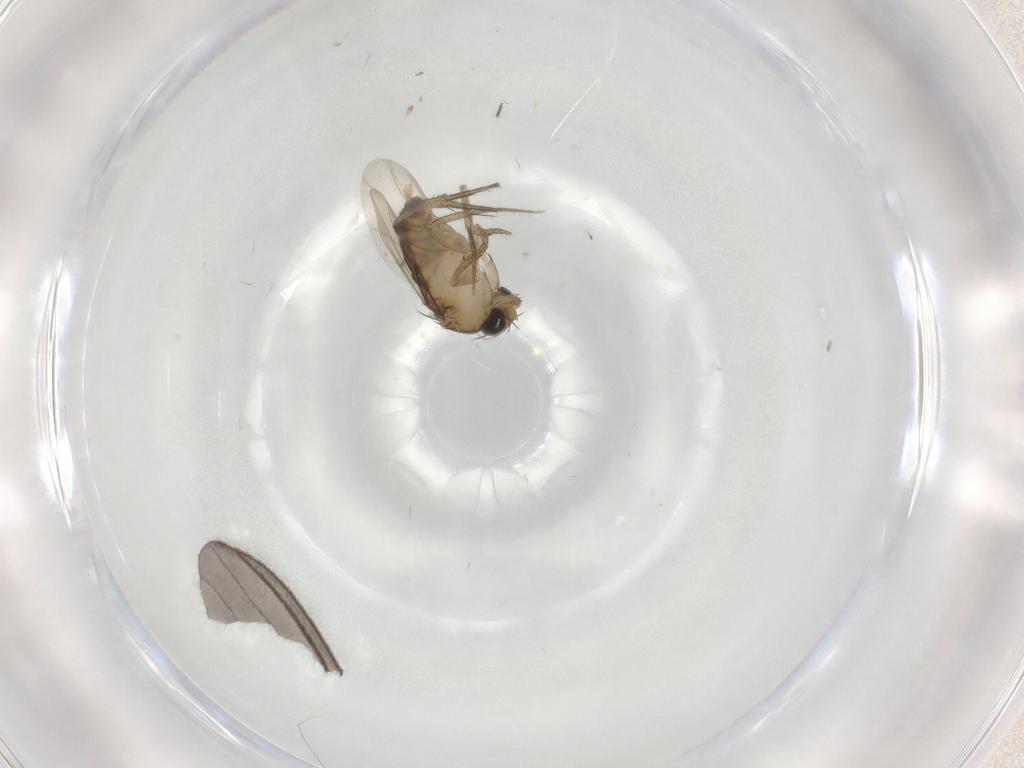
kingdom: Animalia
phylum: Arthropoda
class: Insecta
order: Diptera
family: Sciaridae
